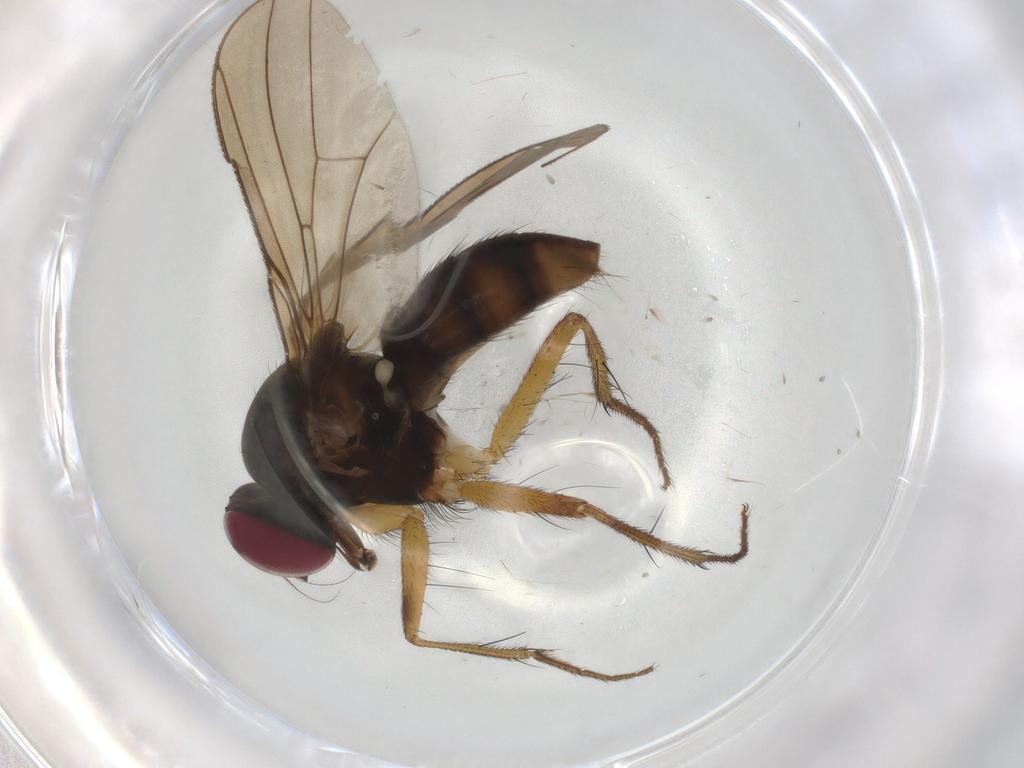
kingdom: Animalia
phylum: Arthropoda
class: Insecta
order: Diptera
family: Anthomyiidae
